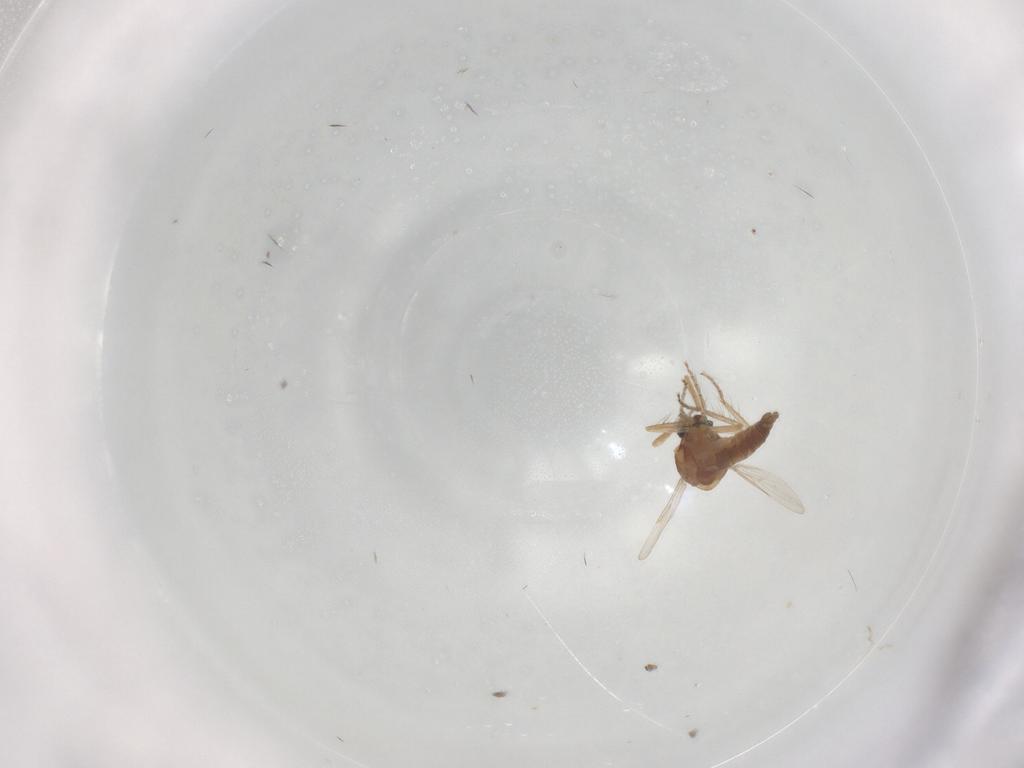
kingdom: Animalia
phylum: Arthropoda
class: Insecta
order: Diptera
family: Ceratopogonidae
